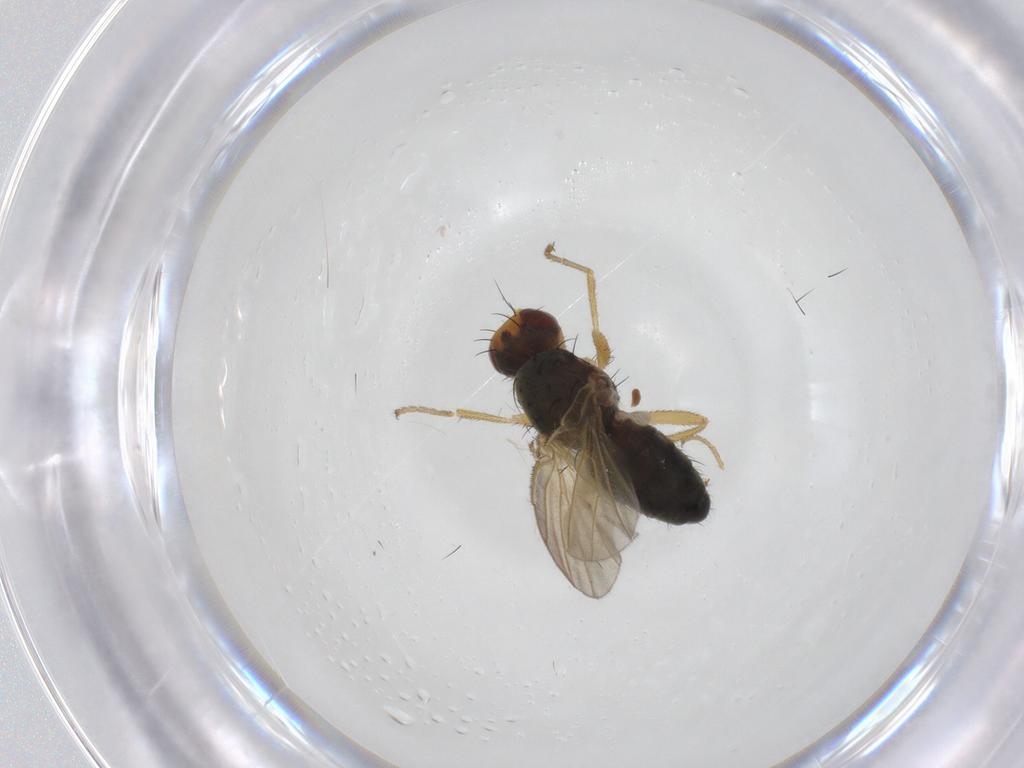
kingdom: Animalia
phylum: Arthropoda
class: Insecta
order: Diptera
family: Heleomyzidae
